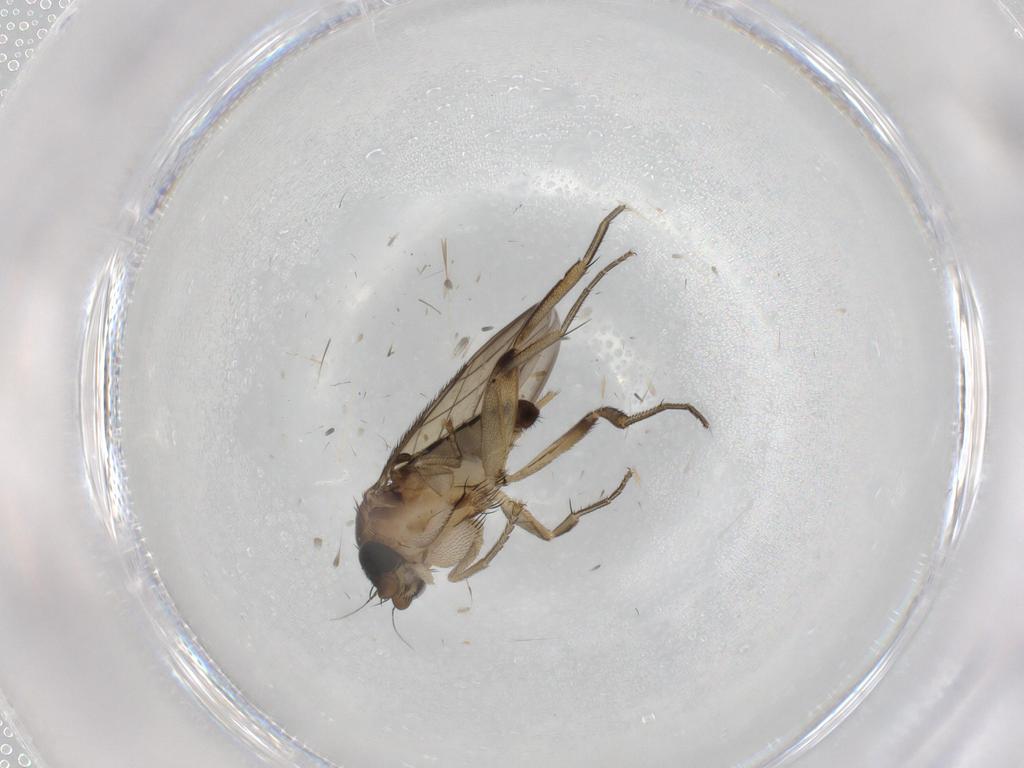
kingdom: Animalia
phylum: Arthropoda
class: Insecta
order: Diptera
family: Phoridae
